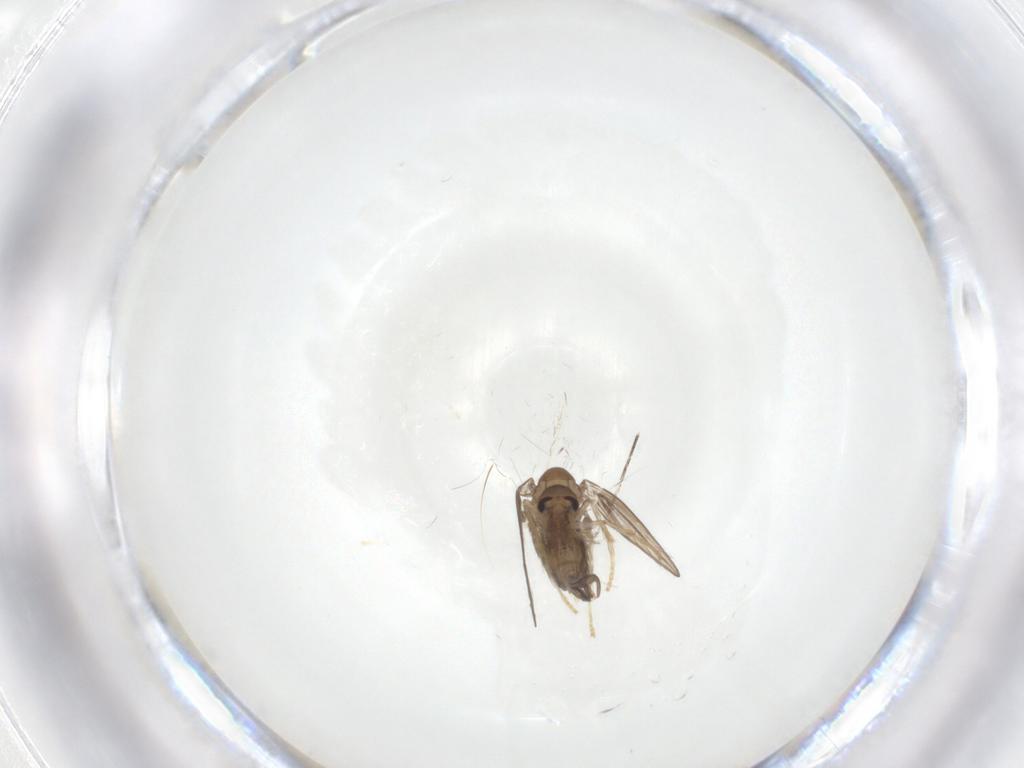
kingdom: Animalia
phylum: Arthropoda
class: Insecta
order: Diptera
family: Psychodidae
